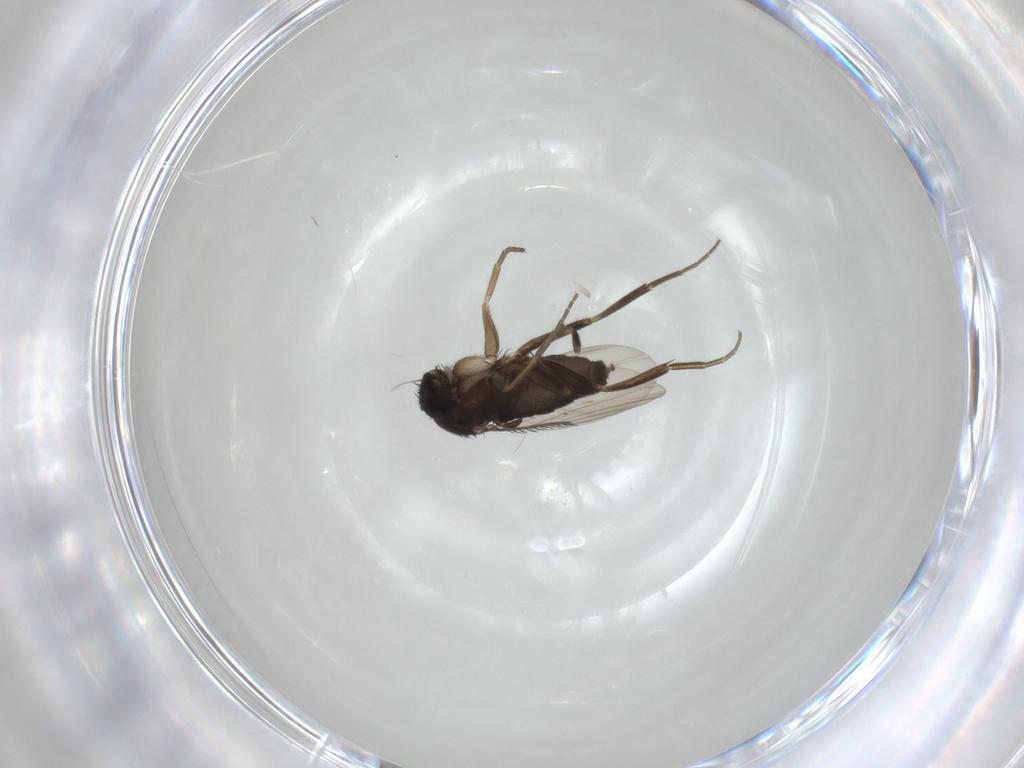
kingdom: Animalia
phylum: Arthropoda
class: Insecta
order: Diptera
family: Phoridae
